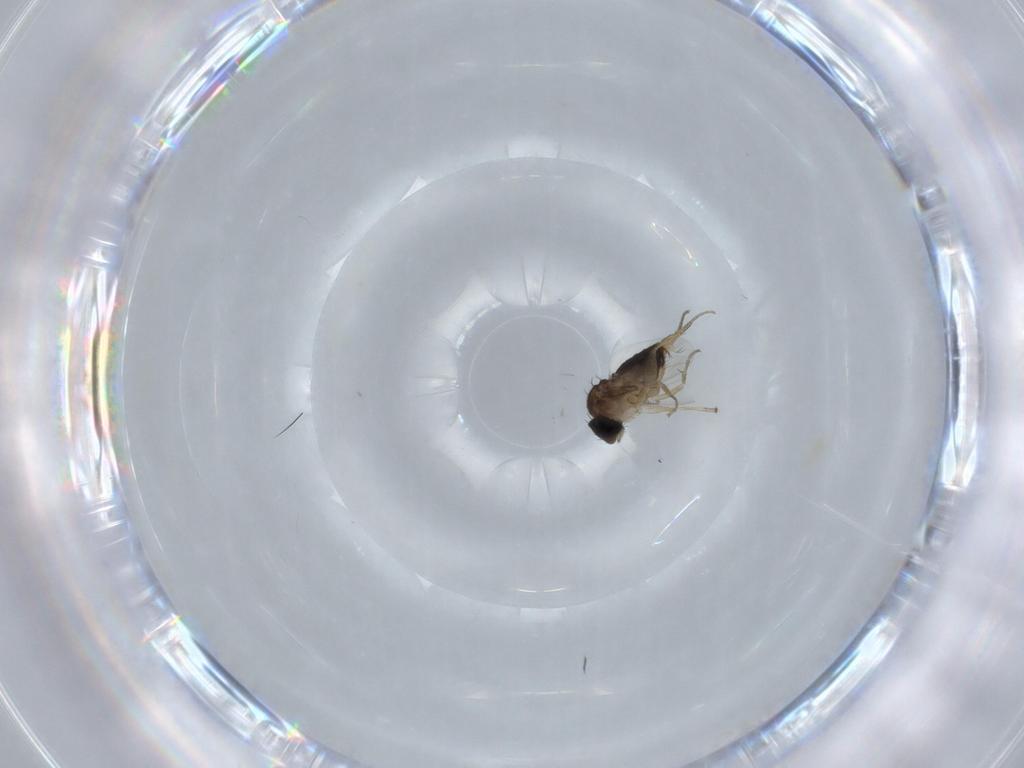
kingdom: Animalia
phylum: Arthropoda
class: Insecta
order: Diptera
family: Phoridae
